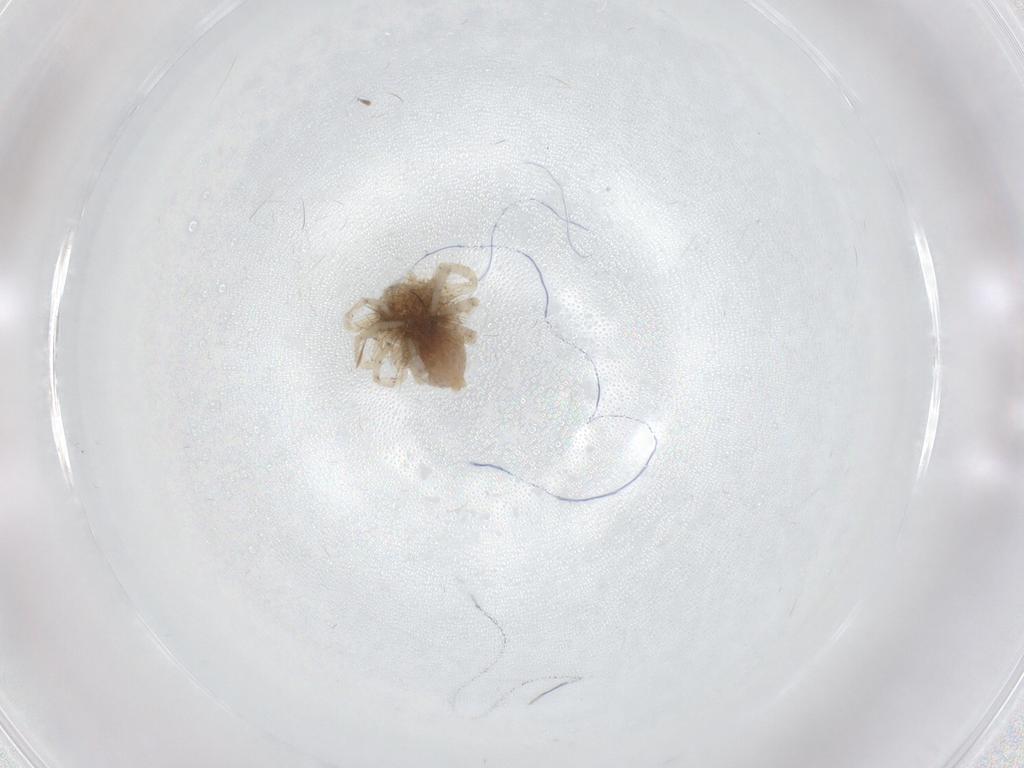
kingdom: Animalia
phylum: Arthropoda
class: Arachnida
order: Araneae
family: Philodromidae
